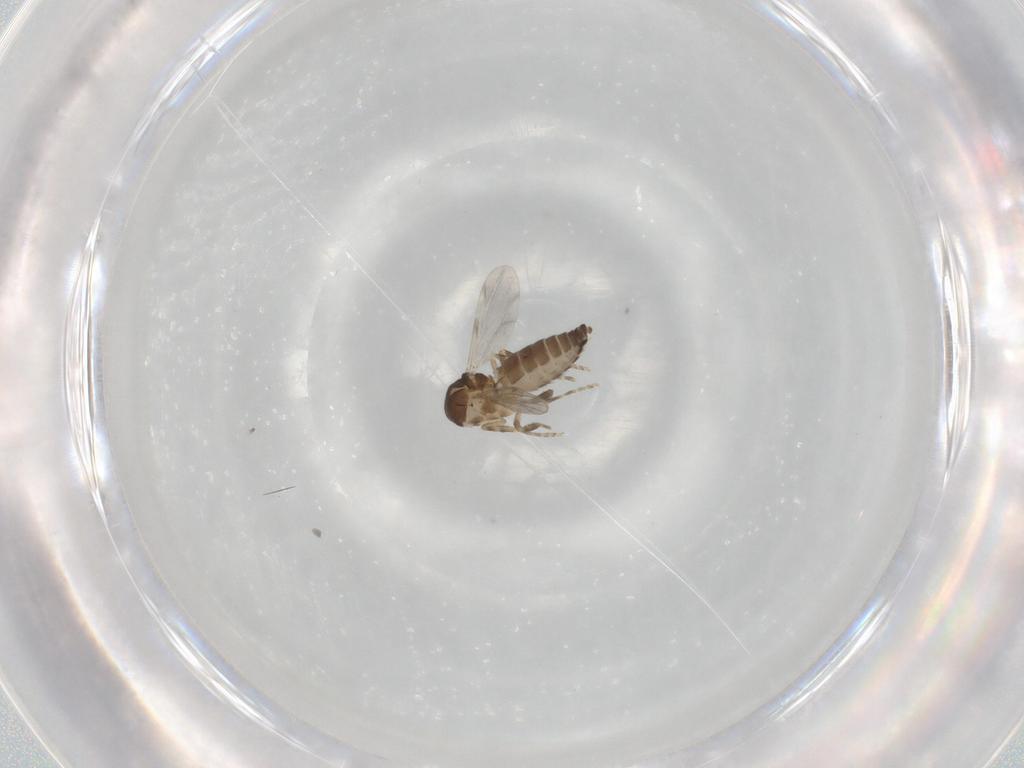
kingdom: Animalia
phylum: Arthropoda
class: Insecta
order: Diptera
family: Ceratopogonidae
